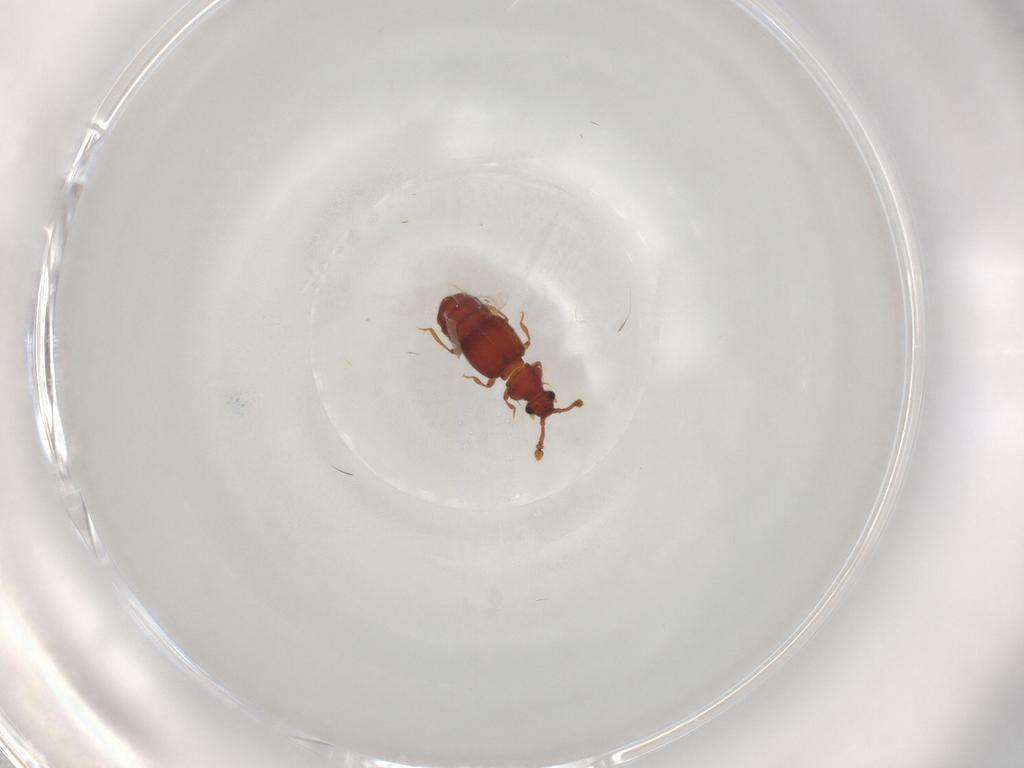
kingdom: Animalia
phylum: Arthropoda
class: Insecta
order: Coleoptera
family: Staphylinidae
